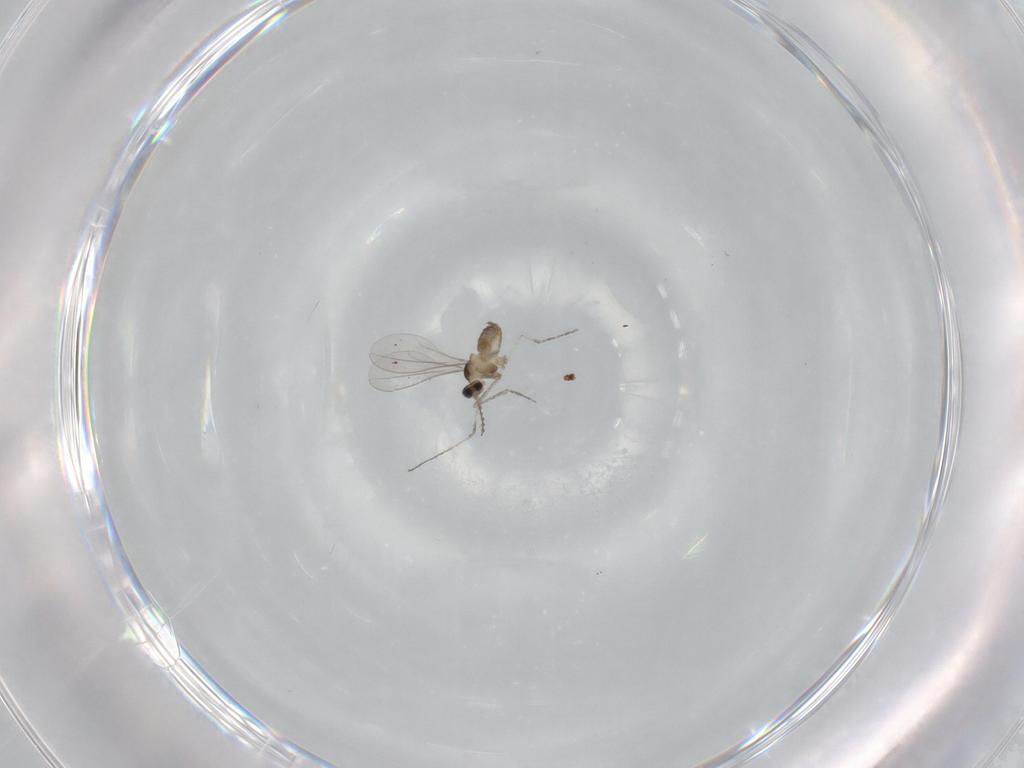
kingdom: Animalia
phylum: Arthropoda
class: Insecta
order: Diptera
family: Cecidomyiidae
